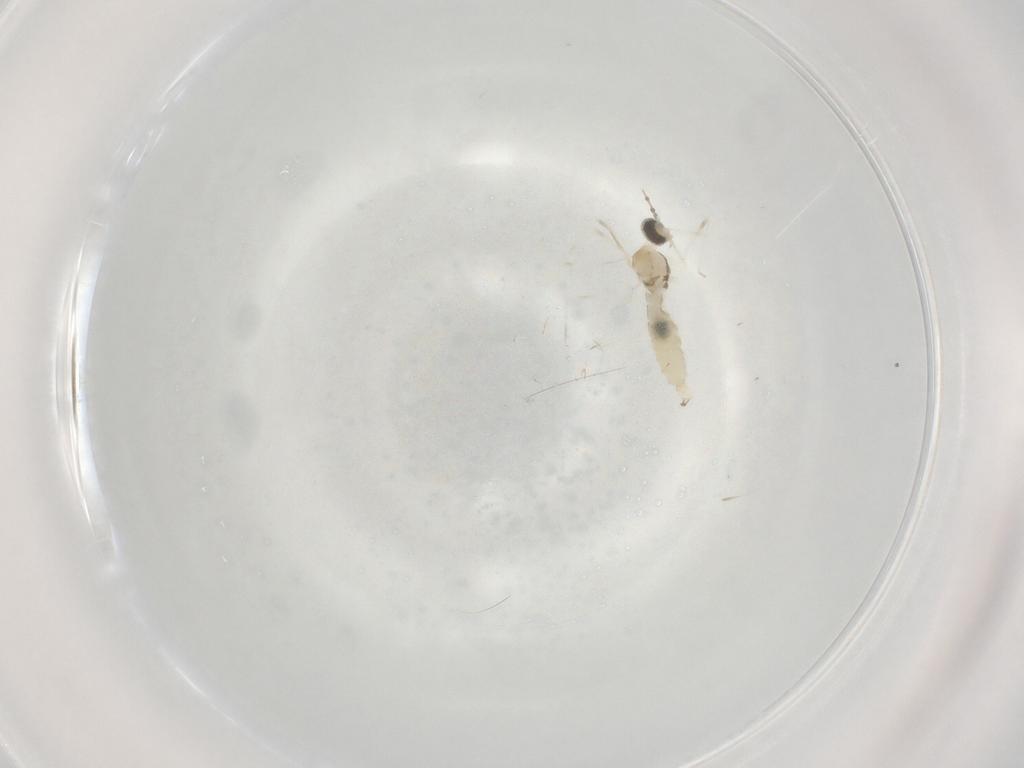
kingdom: Animalia
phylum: Arthropoda
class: Insecta
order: Diptera
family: Cecidomyiidae
